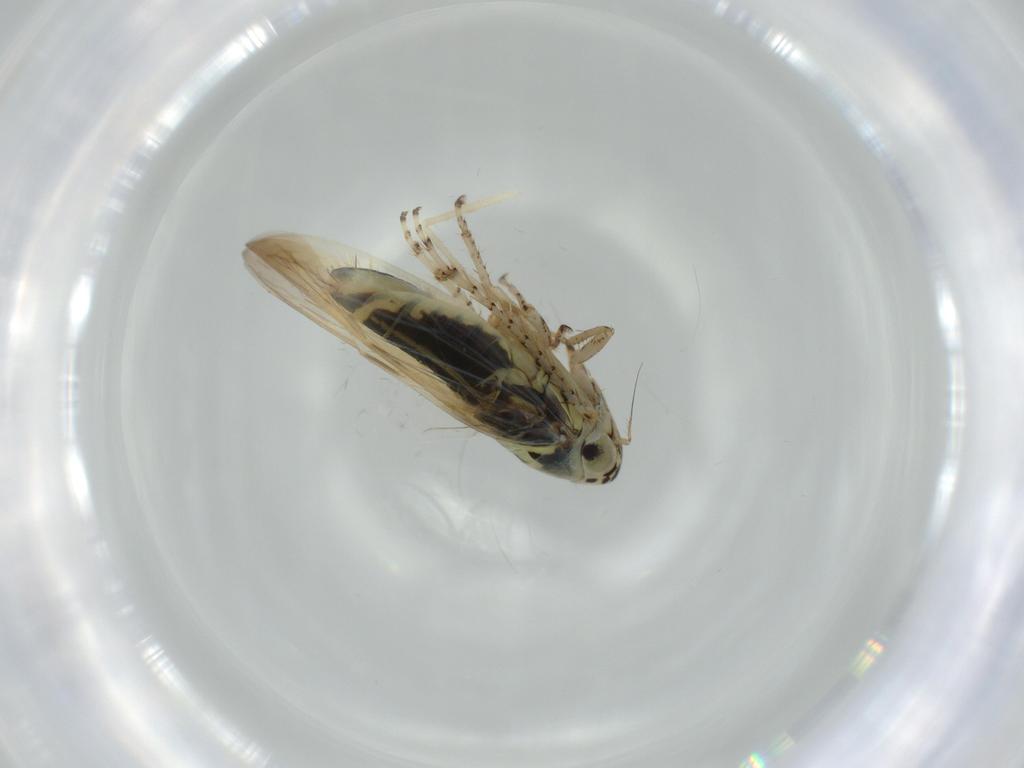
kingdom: Animalia
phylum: Arthropoda
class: Insecta
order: Hemiptera
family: Cicadellidae
